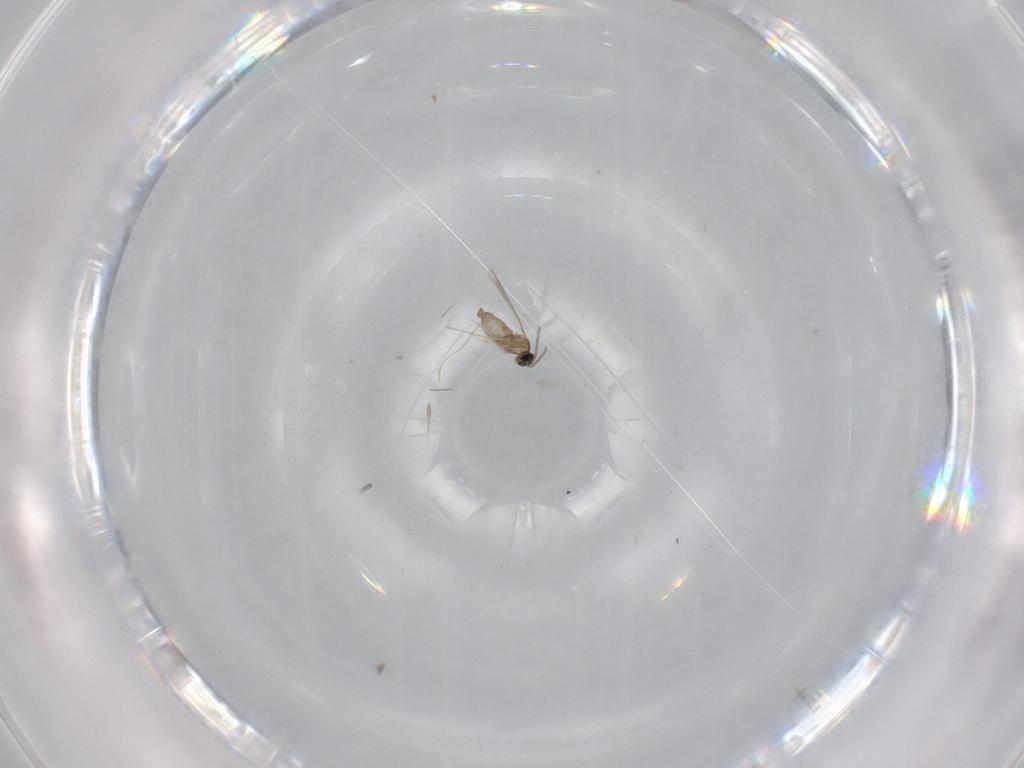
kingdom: Animalia
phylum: Arthropoda
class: Insecta
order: Diptera
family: Cecidomyiidae
